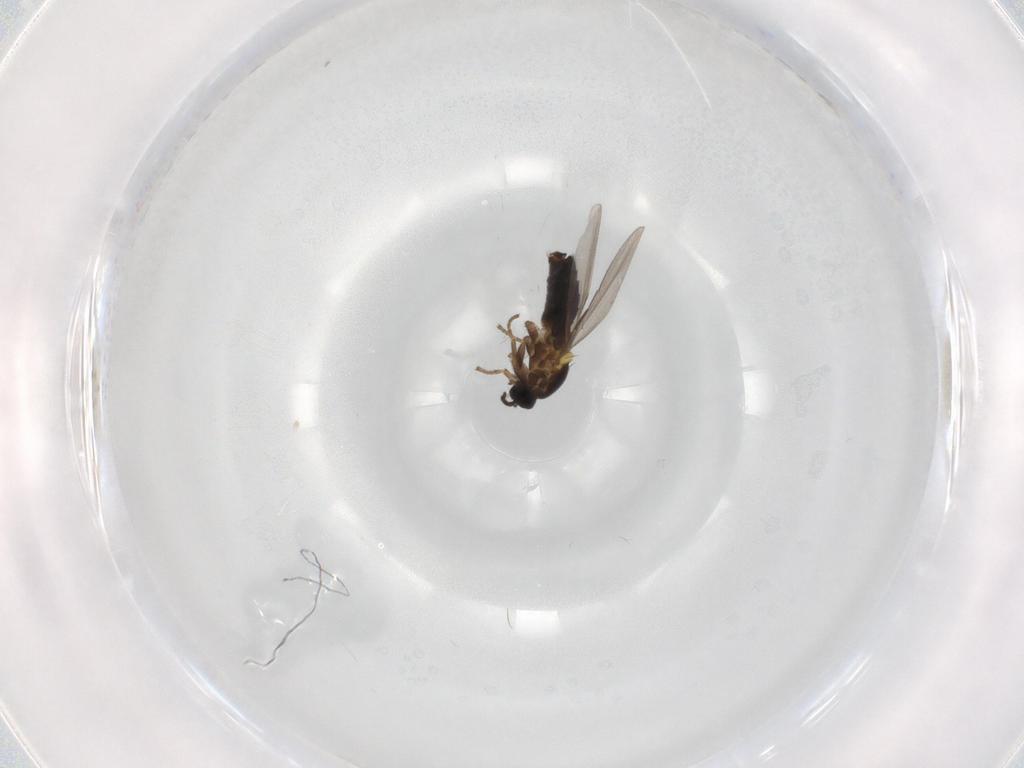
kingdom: Animalia
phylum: Arthropoda
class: Insecta
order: Diptera
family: Scatopsidae
